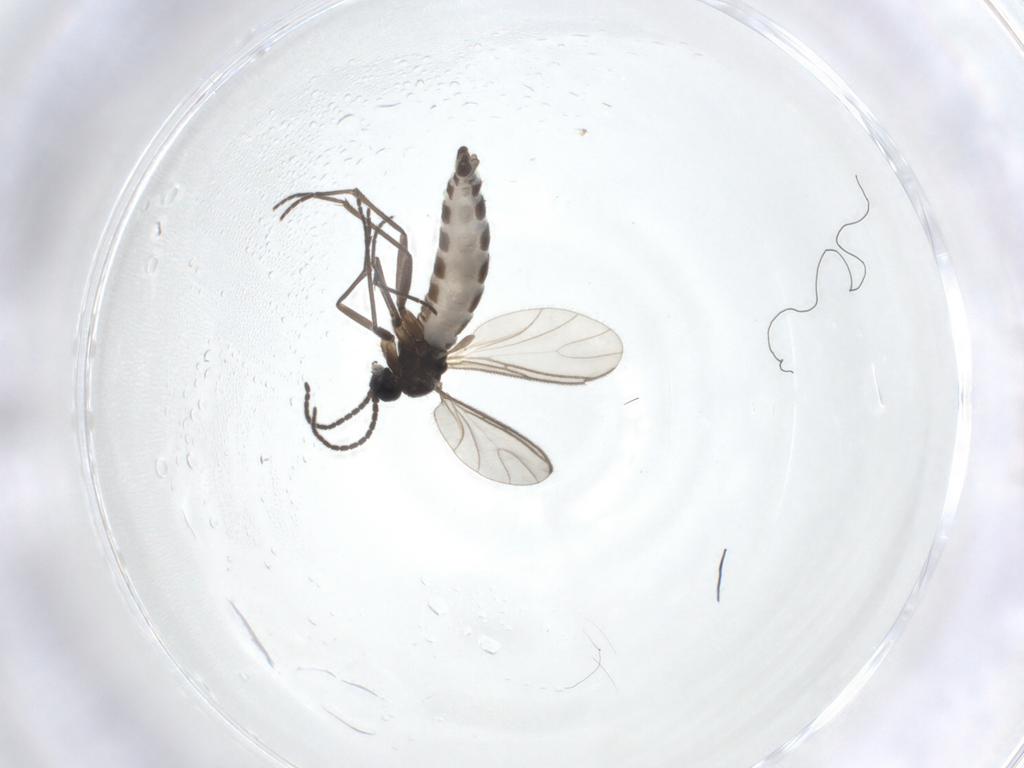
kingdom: Animalia
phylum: Arthropoda
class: Insecta
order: Diptera
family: Sciaridae
